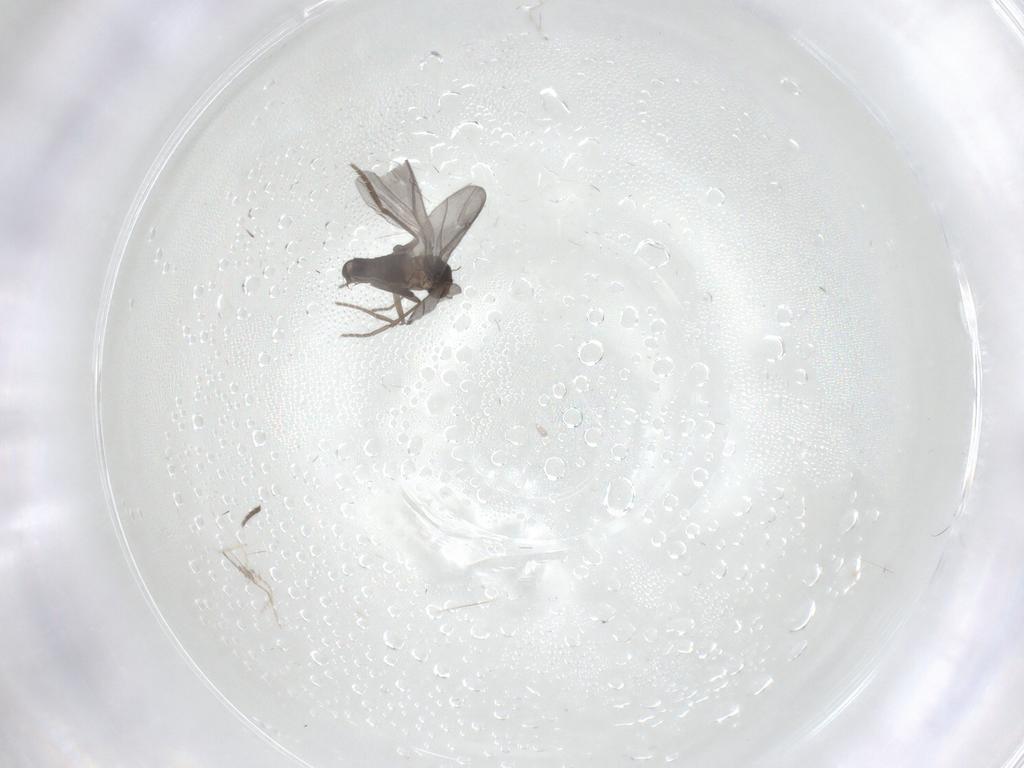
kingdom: Animalia
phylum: Arthropoda
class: Insecta
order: Diptera
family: Phoridae
